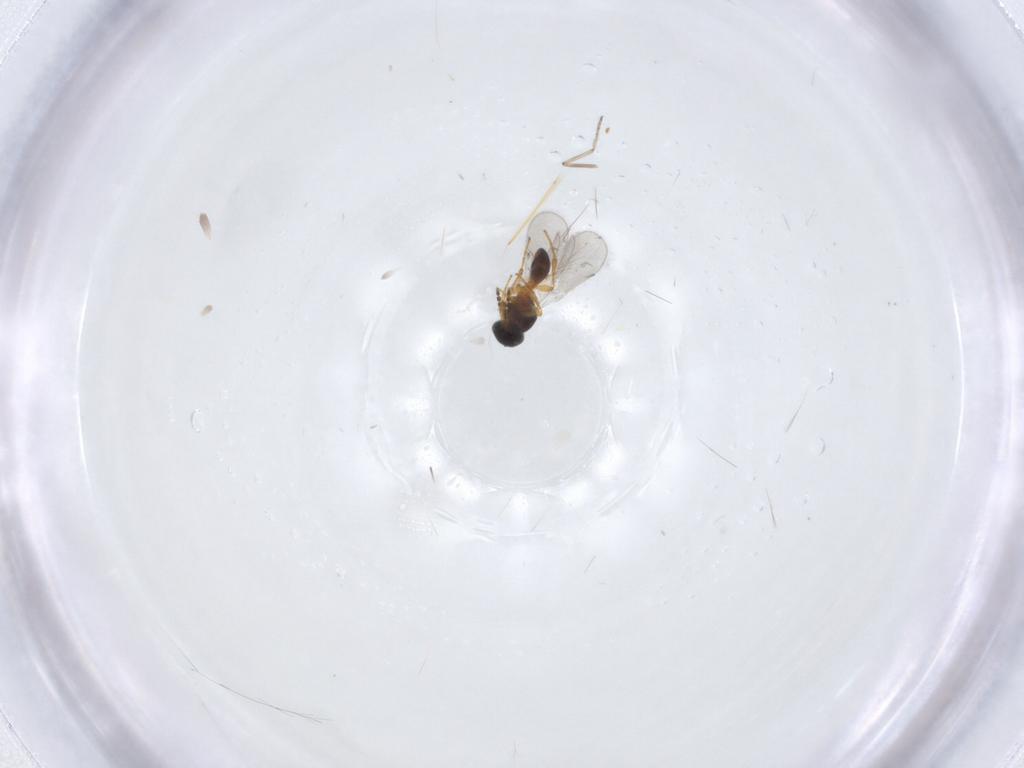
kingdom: Animalia
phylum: Arthropoda
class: Insecta
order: Hymenoptera
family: Platygastridae
